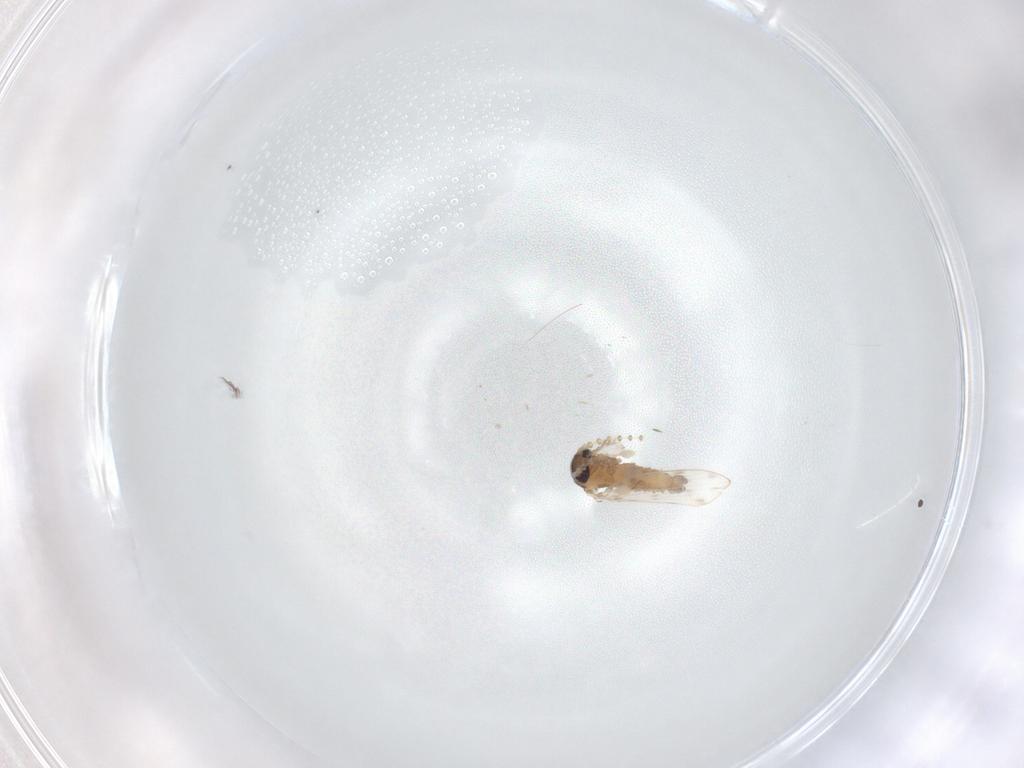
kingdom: Animalia
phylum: Arthropoda
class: Insecta
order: Diptera
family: Psychodidae
